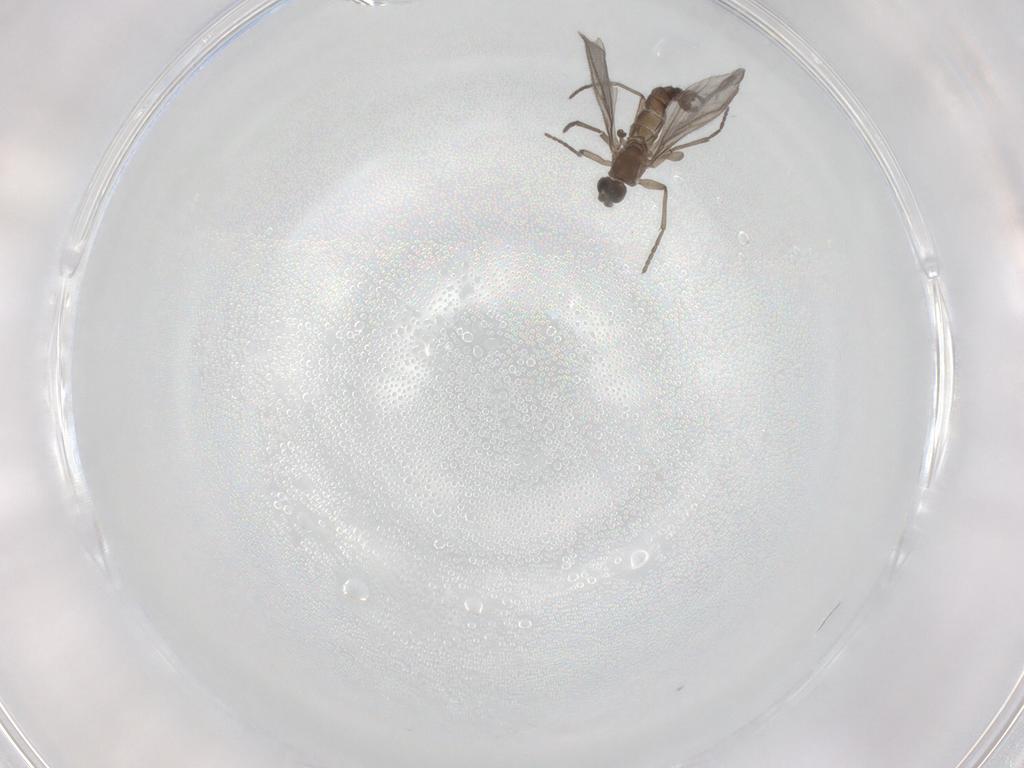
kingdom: Animalia
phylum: Arthropoda
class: Insecta
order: Diptera
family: Sciaridae
